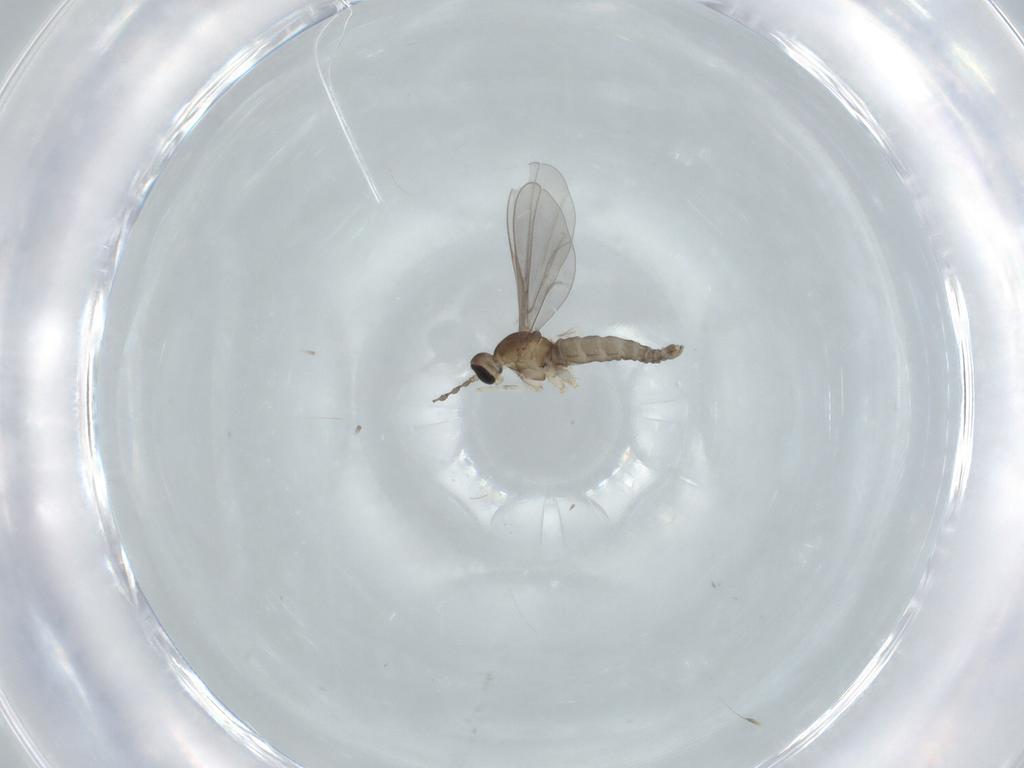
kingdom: Animalia
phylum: Arthropoda
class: Insecta
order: Diptera
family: Cecidomyiidae
